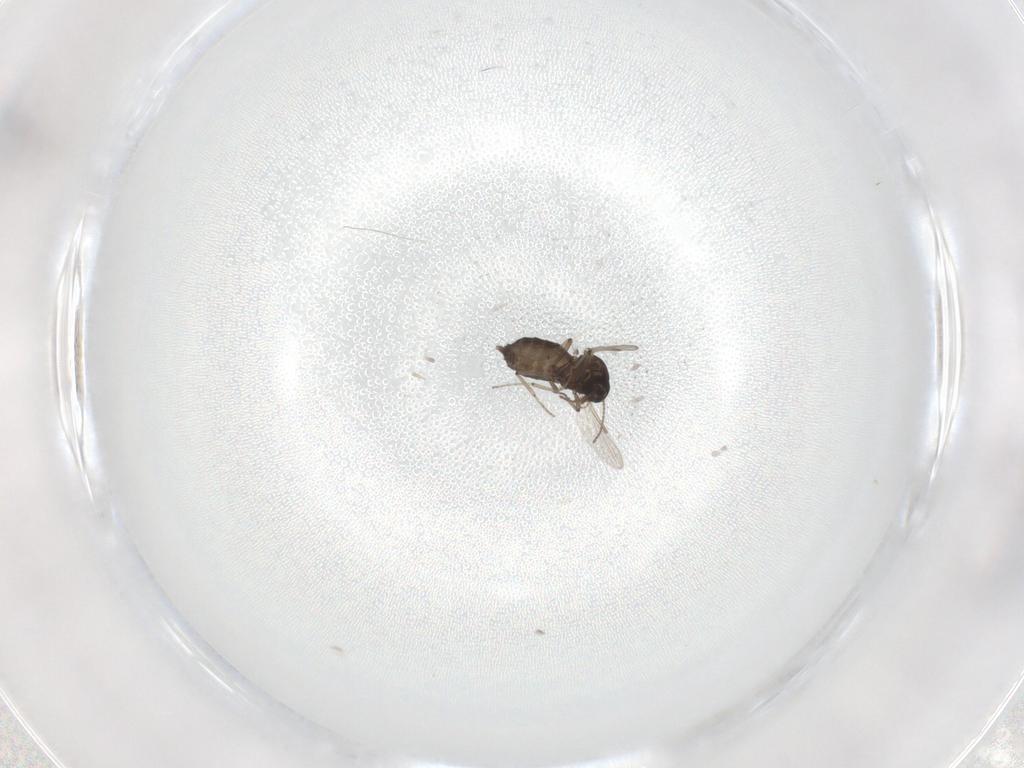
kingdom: Animalia
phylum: Arthropoda
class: Insecta
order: Diptera
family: Ceratopogonidae
